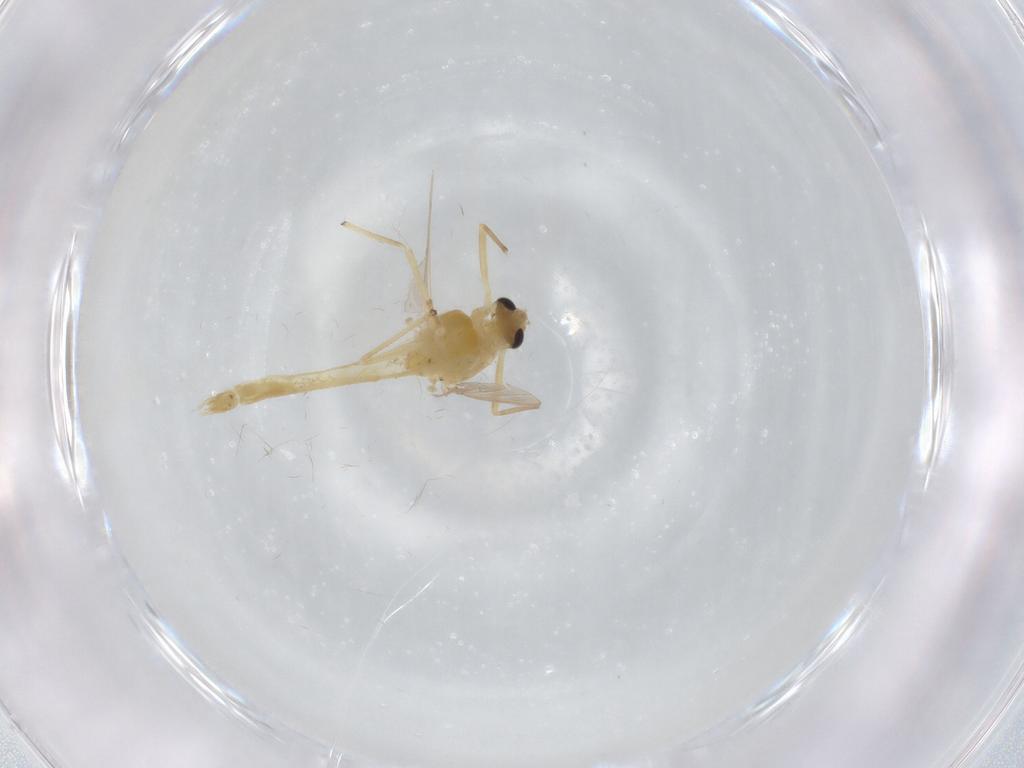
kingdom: Animalia
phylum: Arthropoda
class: Insecta
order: Diptera
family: Chironomidae
